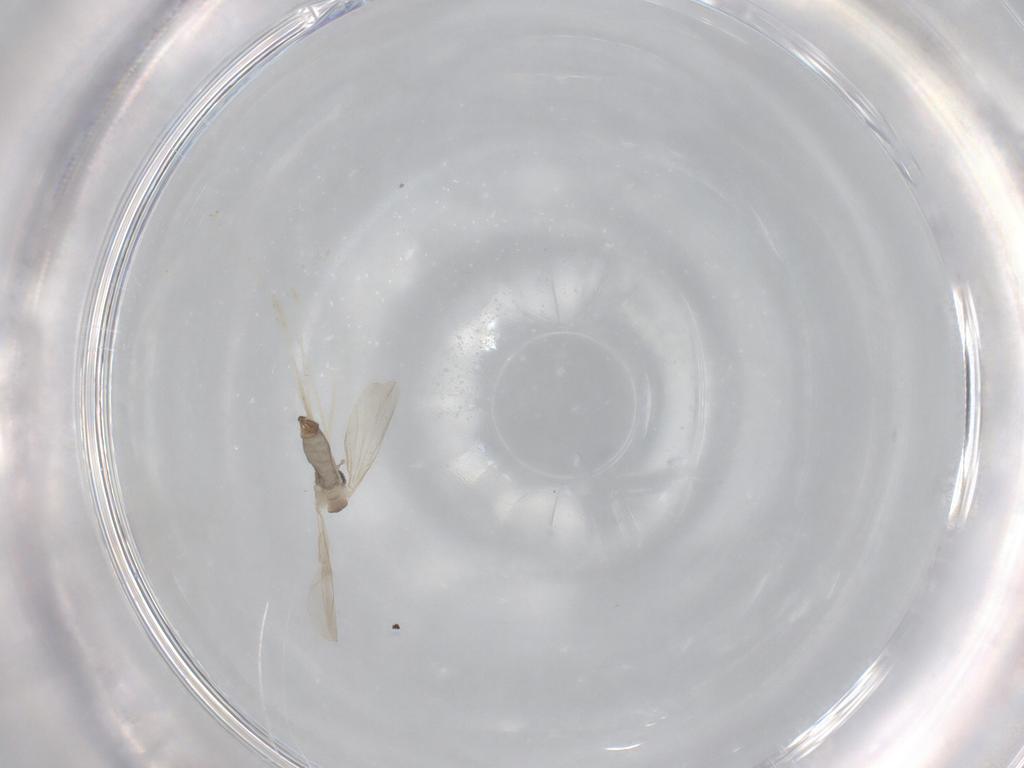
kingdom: Animalia
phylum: Arthropoda
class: Insecta
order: Diptera
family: Cecidomyiidae
